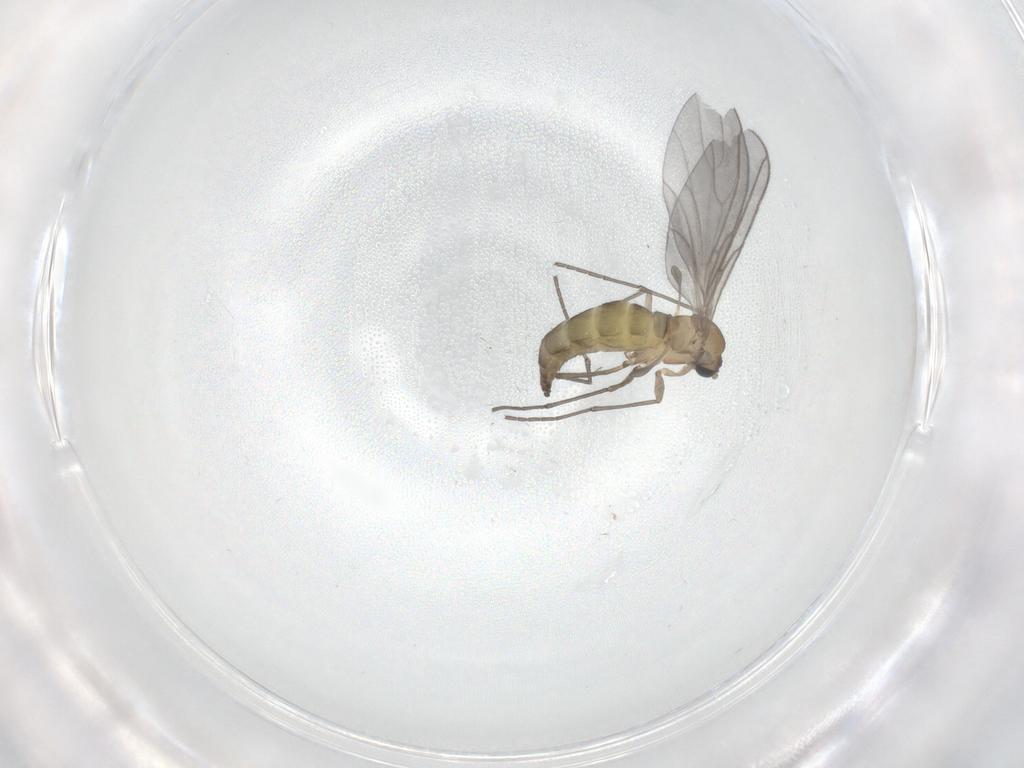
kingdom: Animalia
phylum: Arthropoda
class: Insecta
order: Diptera
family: Sciaridae
